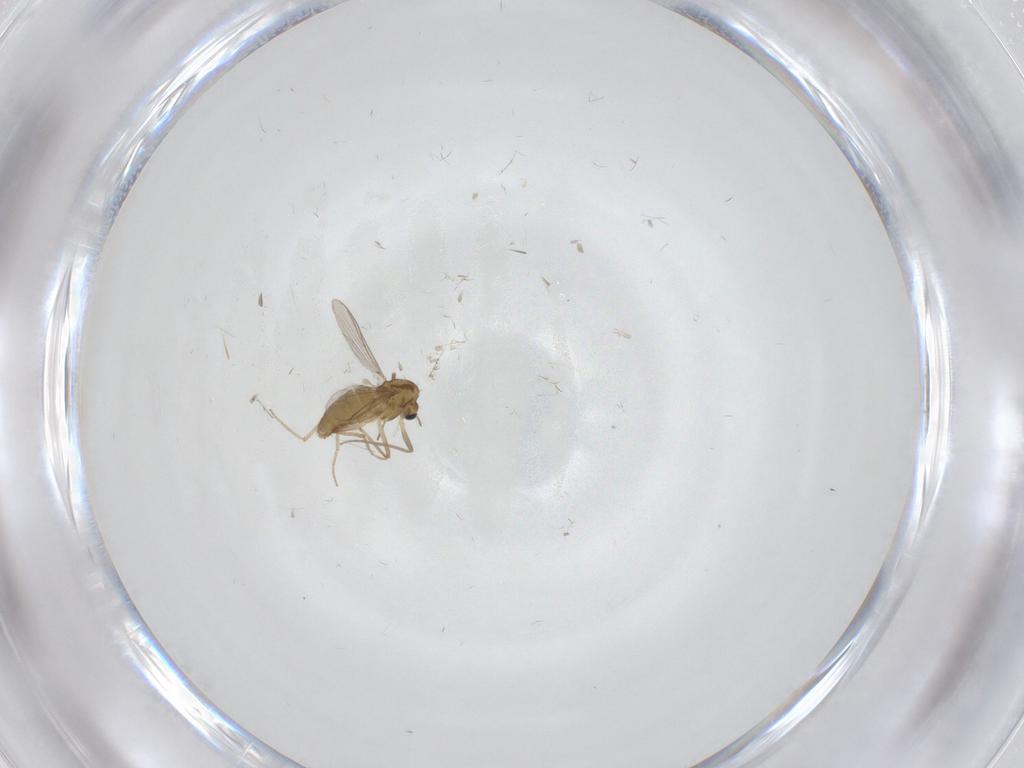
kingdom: Animalia
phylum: Arthropoda
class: Insecta
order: Diptera
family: Chironomidae
